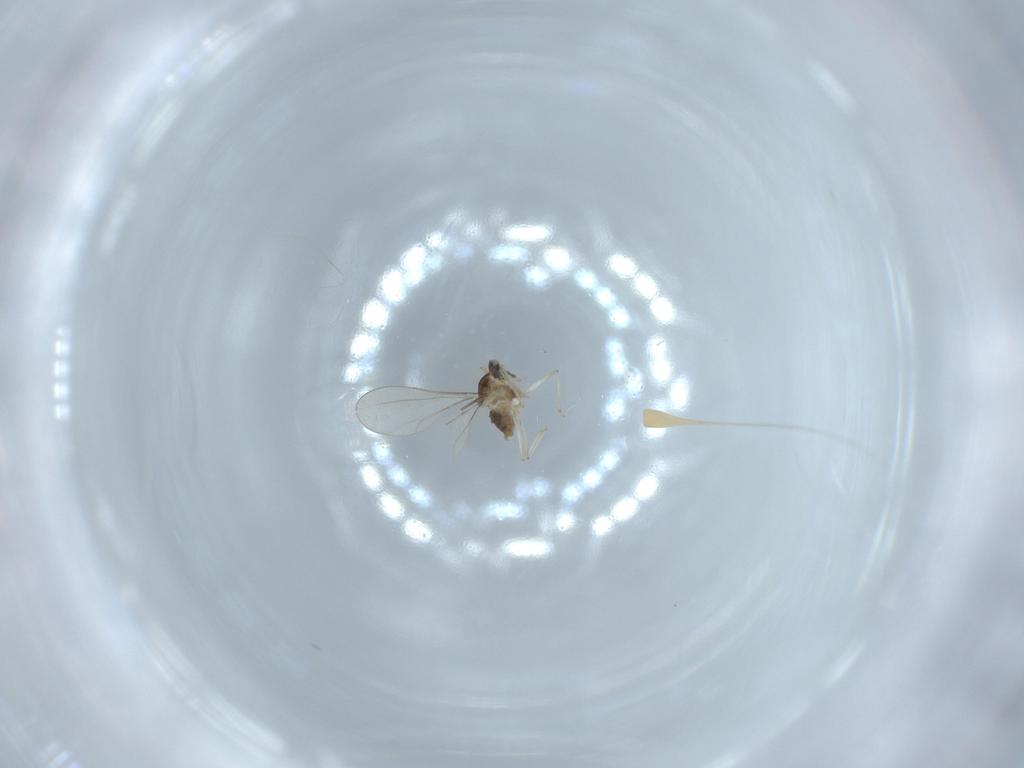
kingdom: Animalia
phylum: Arthropoda
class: Insecta
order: Diptera
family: Cecidomyiidae
